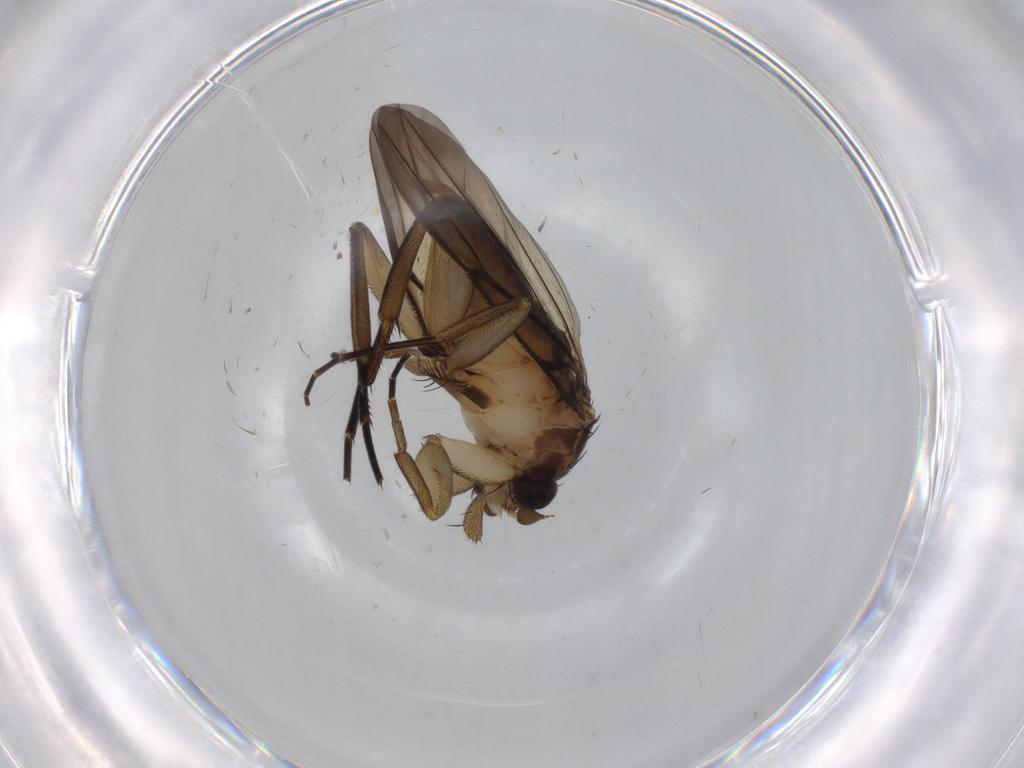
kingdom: Animalia
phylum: Arthropoda
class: Insecta
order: Diptera
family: Phoridae
